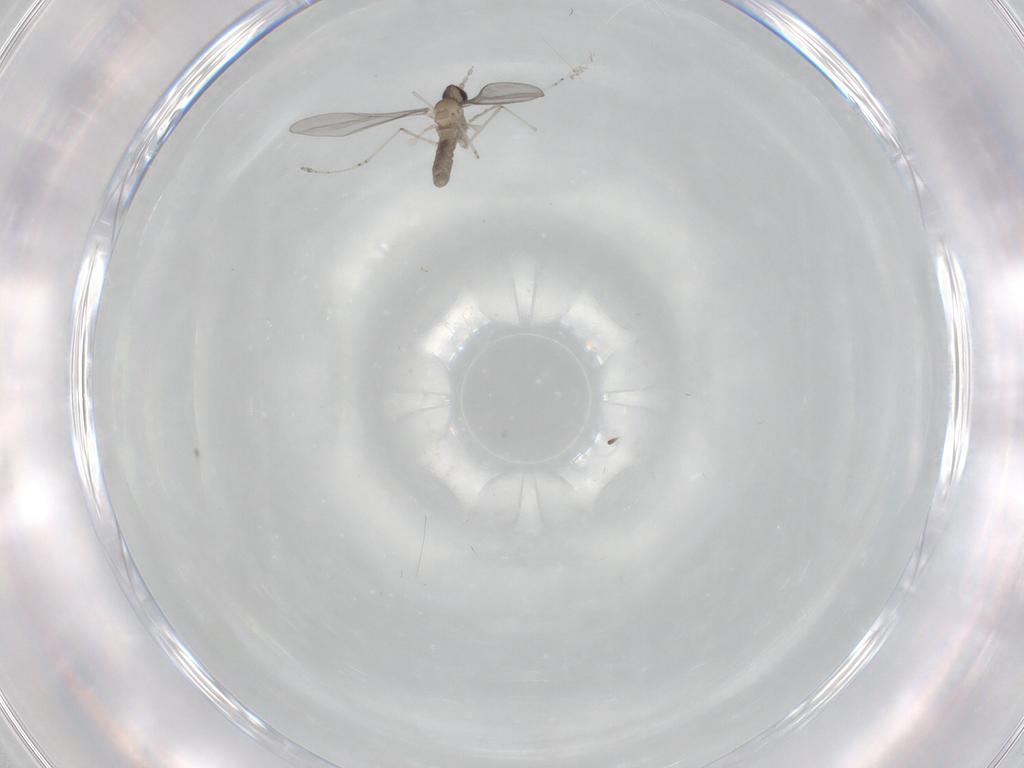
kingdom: Animalia
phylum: Arthropoda
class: Insecta
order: Diptera
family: Cecidomyiidae
